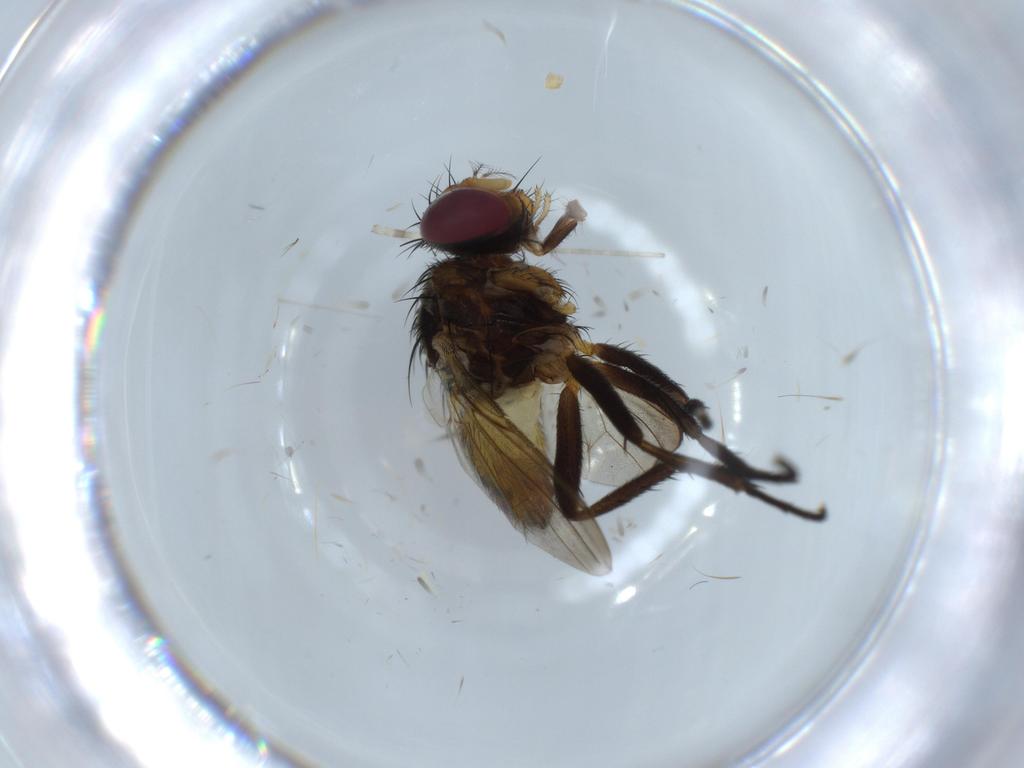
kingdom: Animalia
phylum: Arthropoda
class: Insecta
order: Diptera
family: Anthomyiidae
